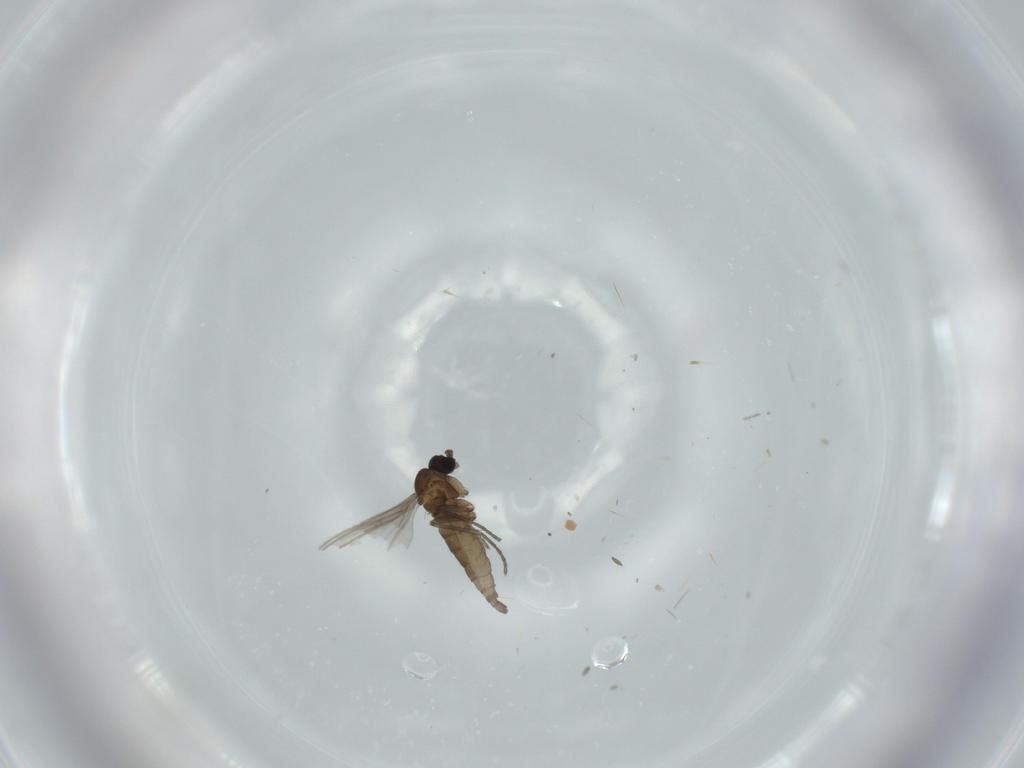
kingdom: Animalia
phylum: Arthropoda
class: Insecta
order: Diptera
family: Chironomidae
